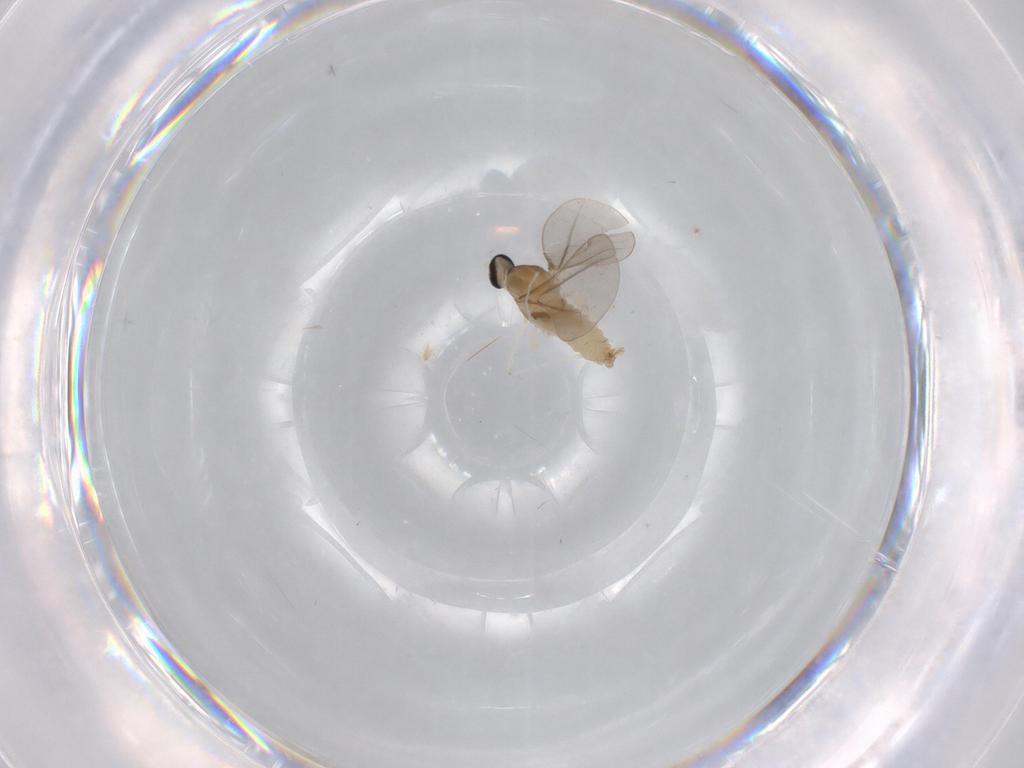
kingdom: Animalia
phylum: Arthropoda
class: Insecta
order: Diptera
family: Cecidomyiidae
